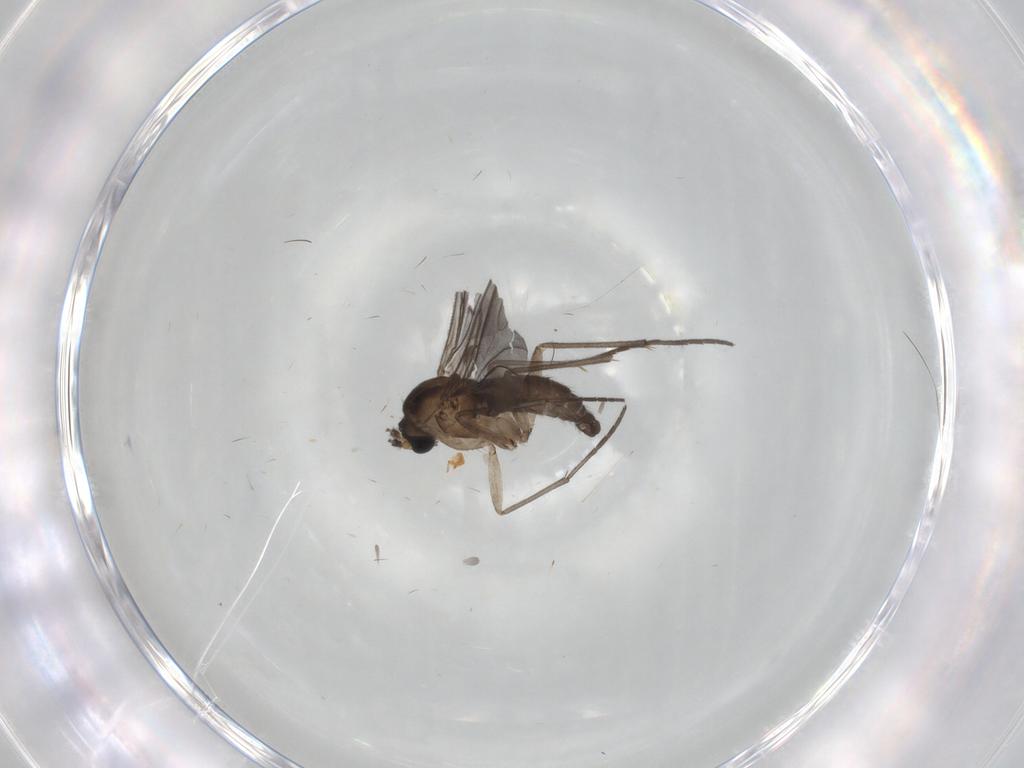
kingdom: Animalia
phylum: Arthropoda
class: Insecta
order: Diptera
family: Sciaridae
